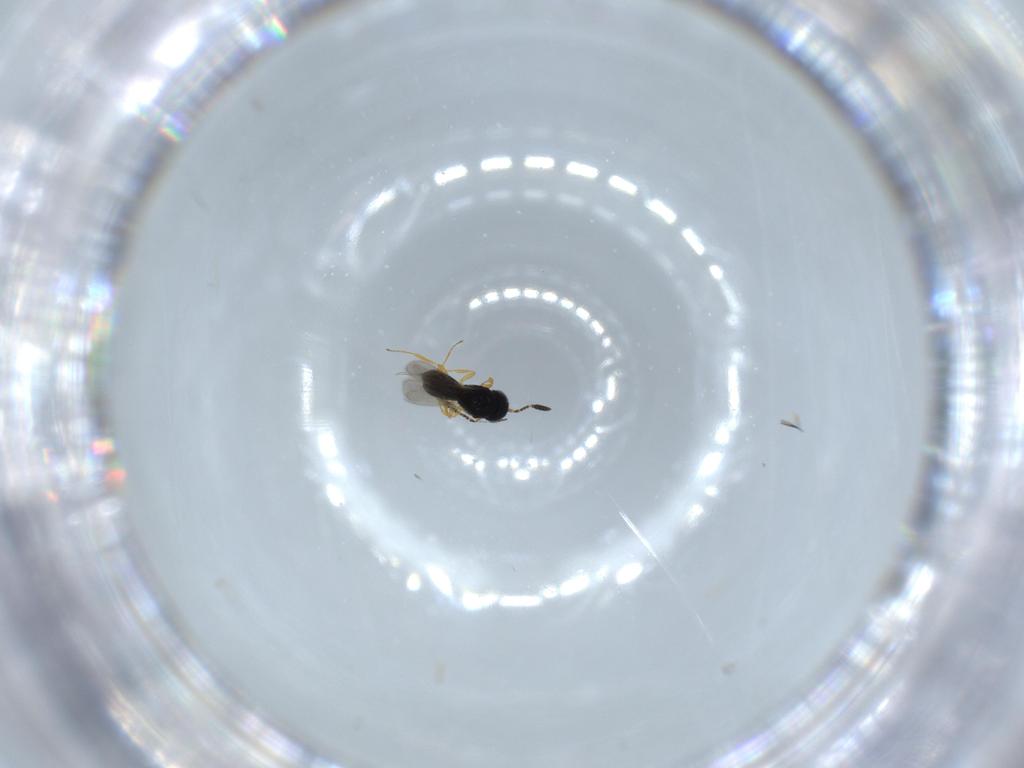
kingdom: Animalia
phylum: Arthropoda
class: Insecta
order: Hymenoptera
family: Scelionidae
